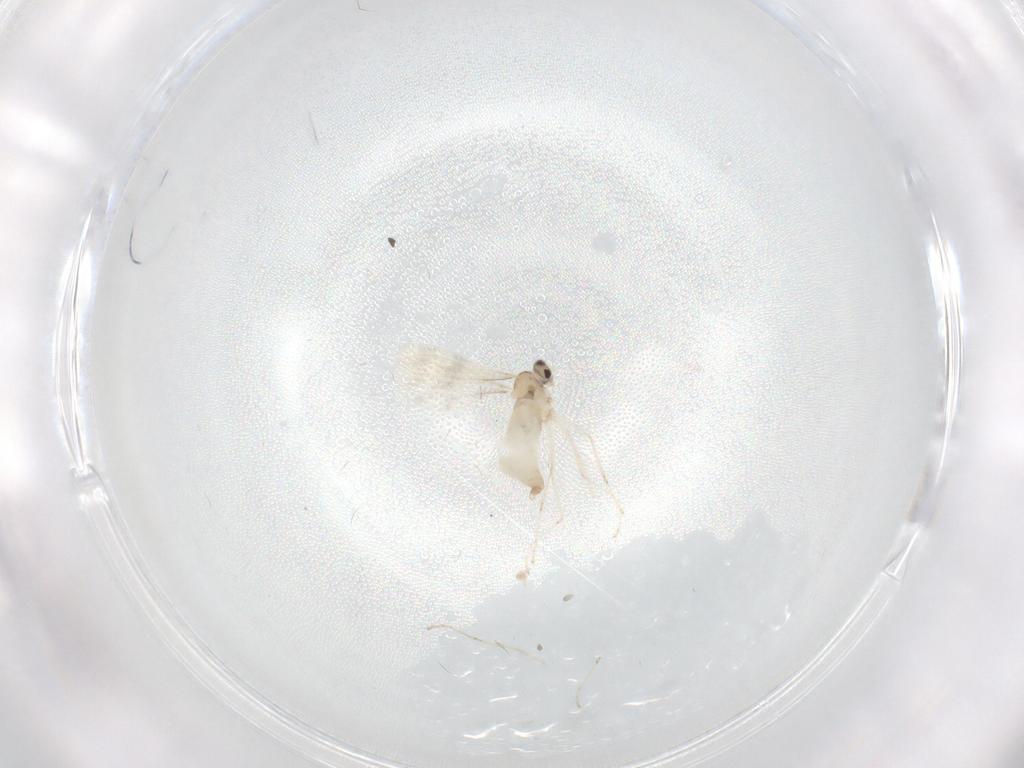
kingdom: Animalia
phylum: Arthropoda
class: Insecta
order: Diptera
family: Cecidomyiidae
